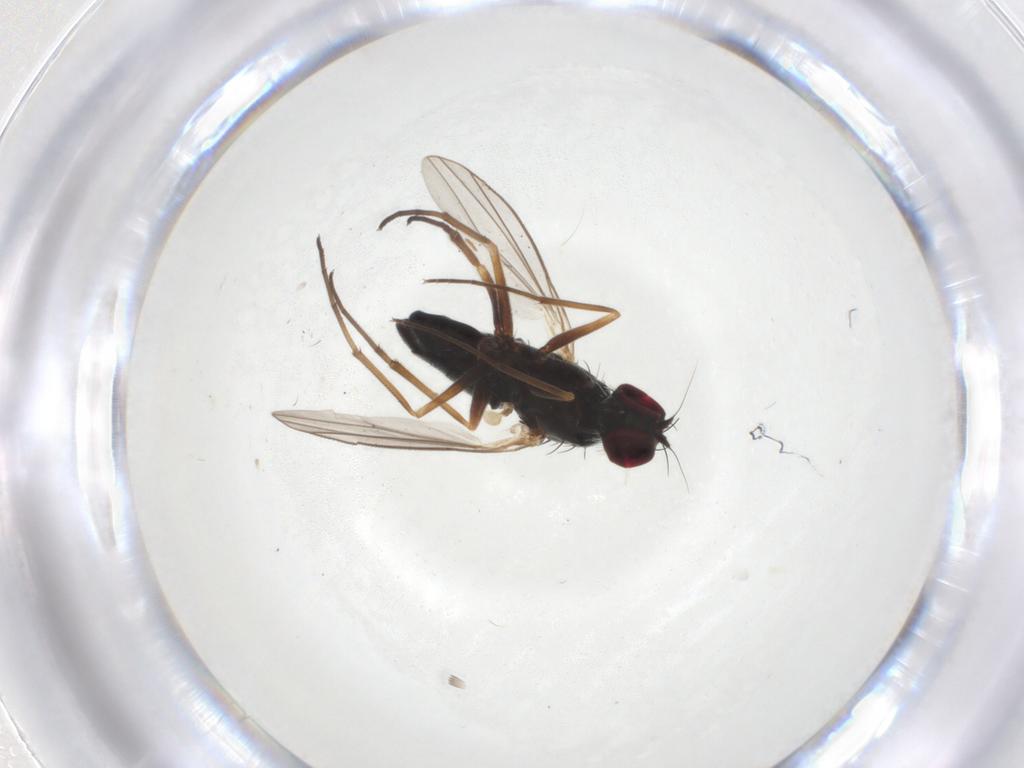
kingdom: Animalia
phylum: Arthropoda
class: Insecta
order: Diptera
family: Dolichopodidae
